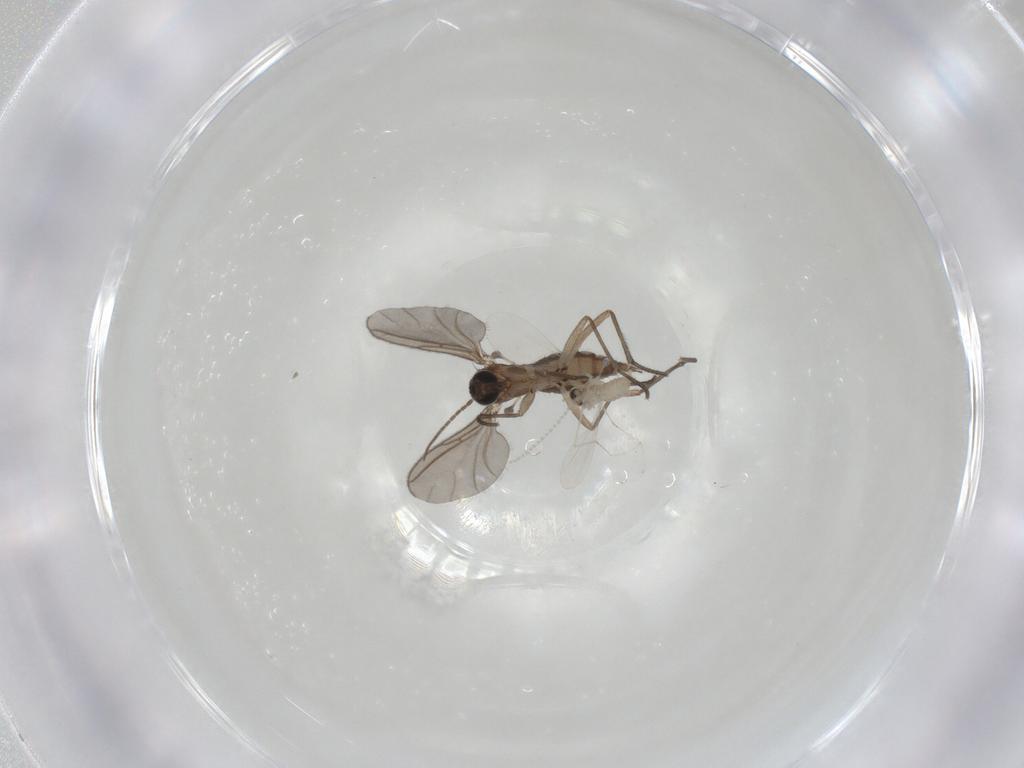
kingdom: Animalia
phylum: Arthropoda
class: Insecta
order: Diptera
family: Sciaridae
